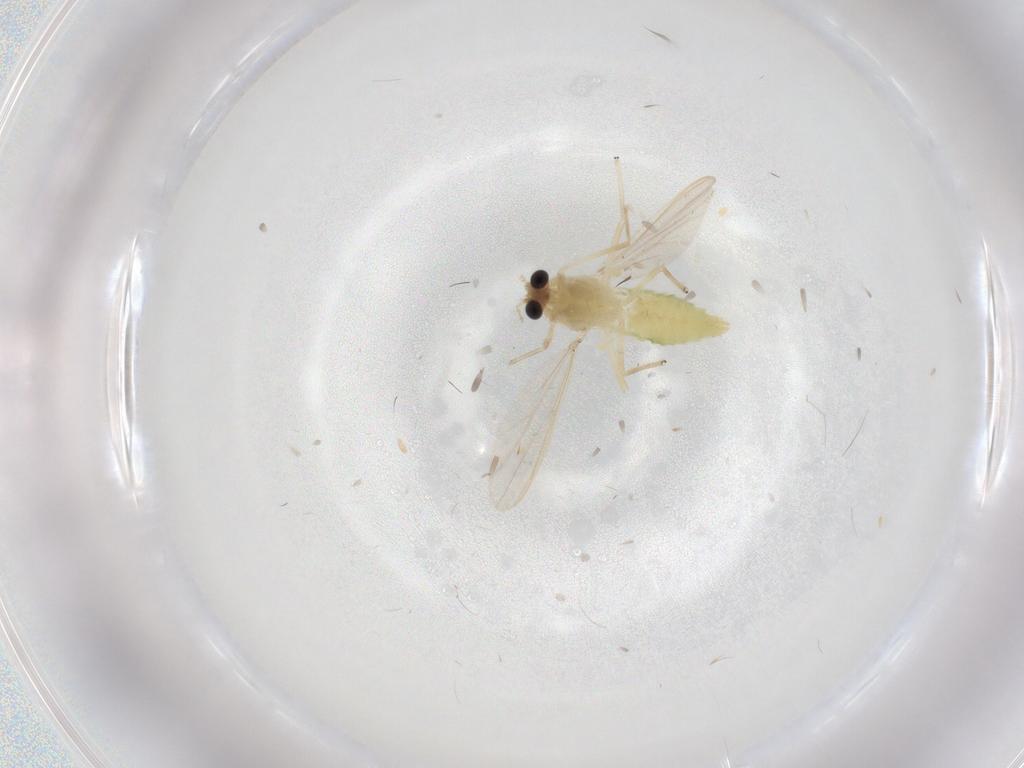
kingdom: Animalia
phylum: Arthropoda
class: Insecta
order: Diptera
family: Chironomidae
